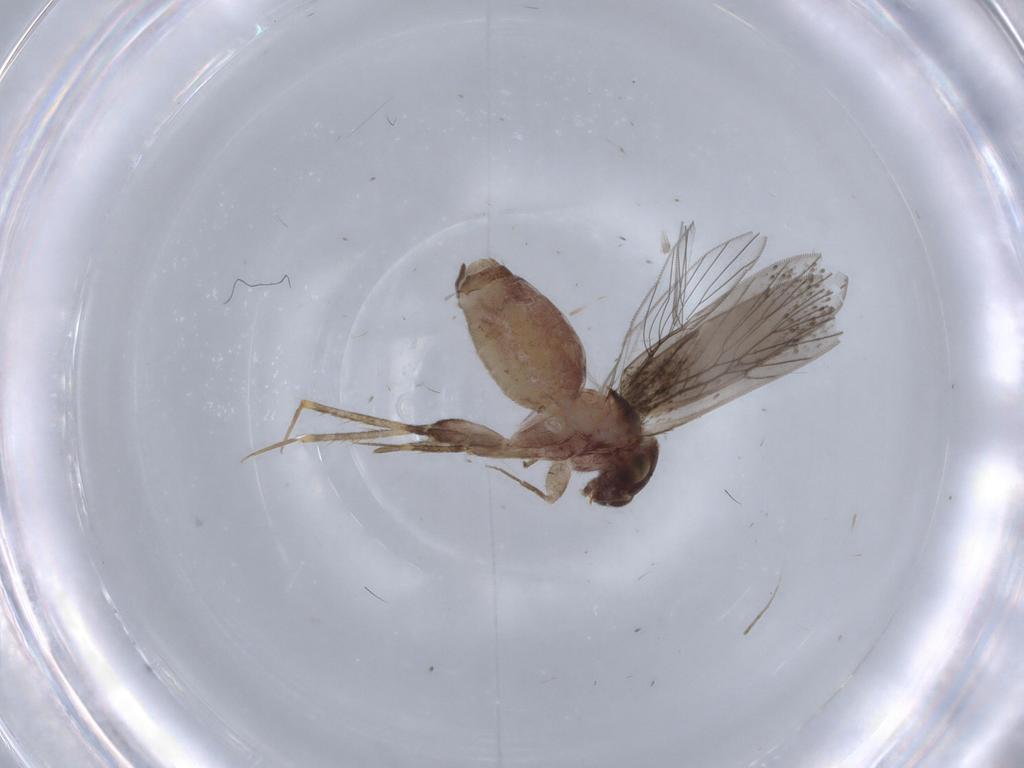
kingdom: Animalia
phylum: Arthropoda
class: Insecta
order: Psocodea
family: Lepidopsocidae
